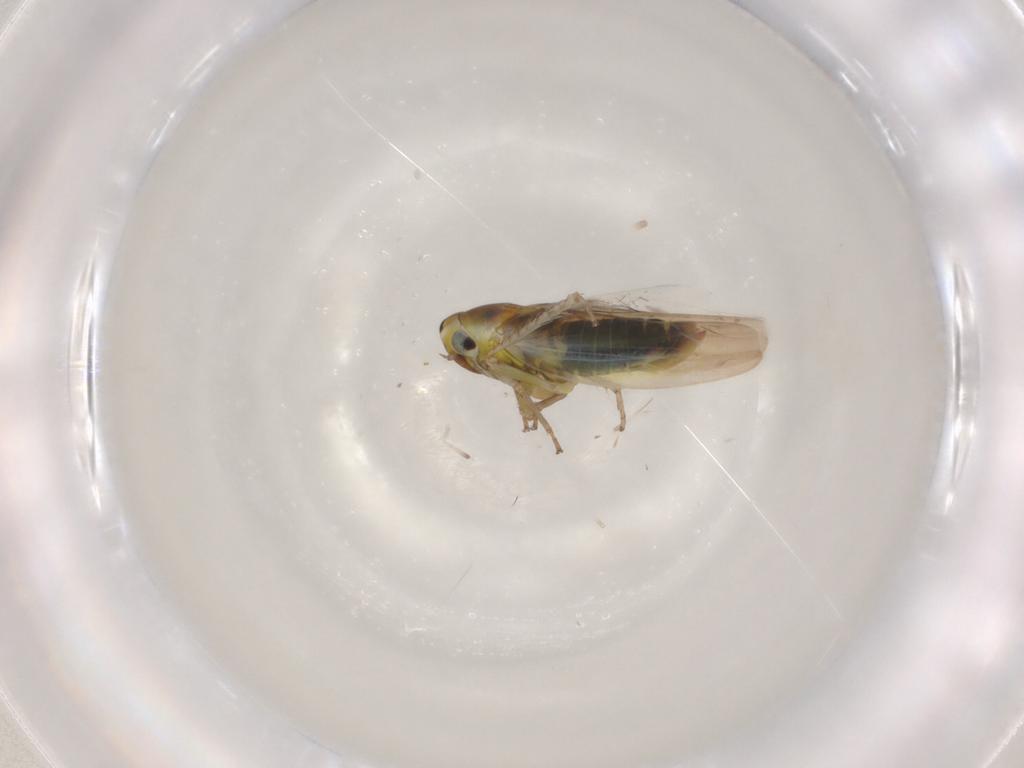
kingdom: Animalia
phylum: Arthropoda
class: Insecta
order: Hemiptera
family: Cicadellidae
